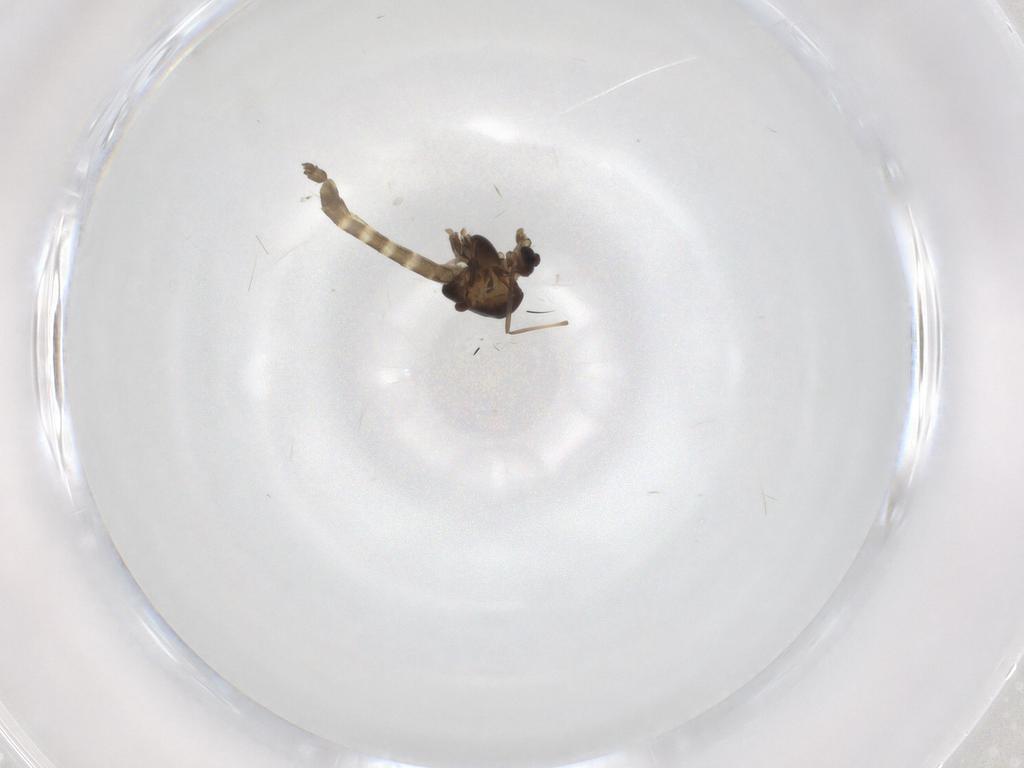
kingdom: Animalia
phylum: Arthropoda
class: Insecta
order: Diptera
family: Chironomidae
